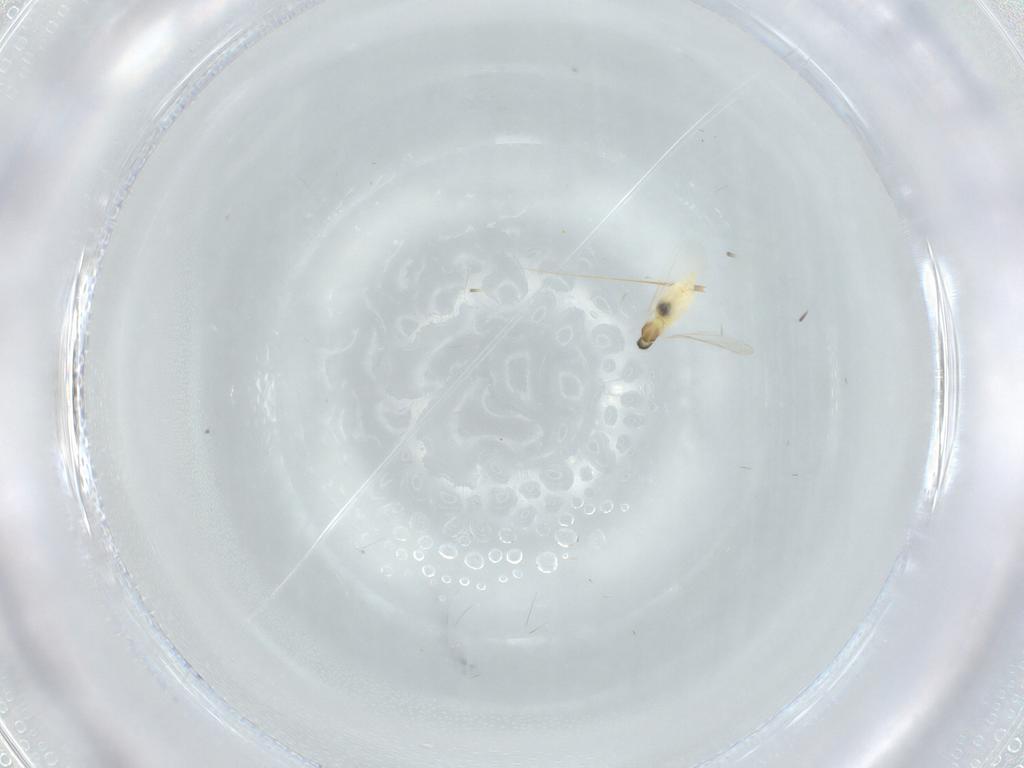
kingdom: Animalia
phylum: Arthropoda
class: Insecta
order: Diptera
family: Cecidomyiidae
